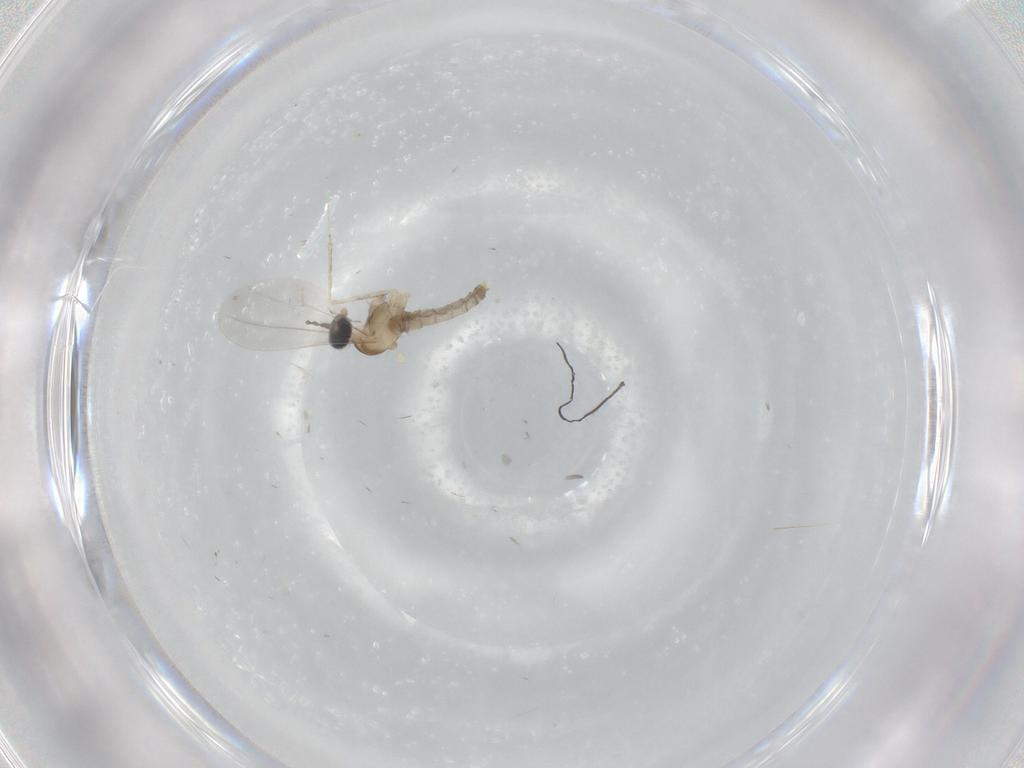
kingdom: Animalia
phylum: Arthropoda
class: Insecta
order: Diptera
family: Cecidomyiidae
